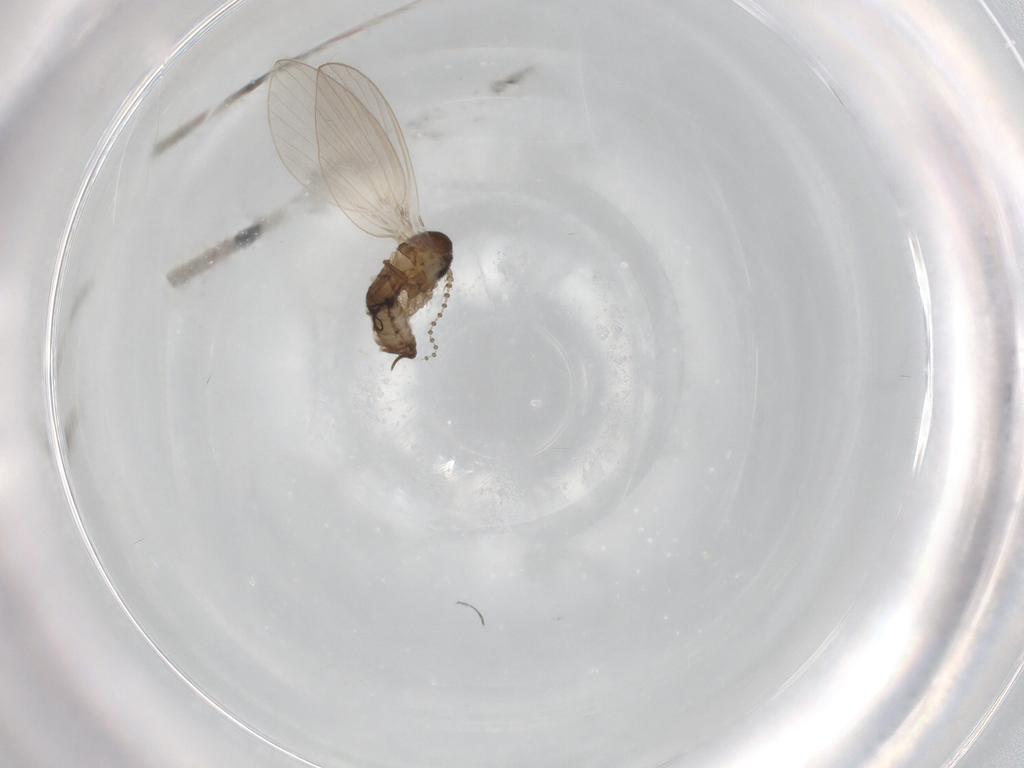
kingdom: Animalia
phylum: Arthropoda
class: Insecta
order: Diptera
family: Psychodidae
